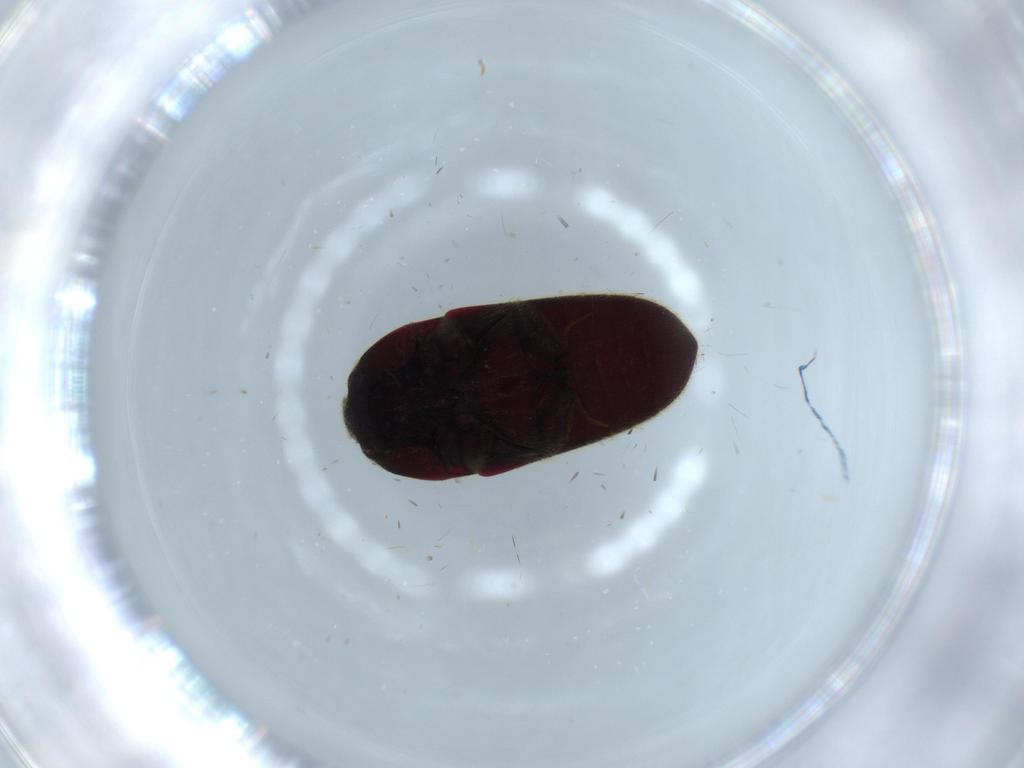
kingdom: Animalia
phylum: Arthropoda
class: Insecta
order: Coleoptera
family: Throscidae
